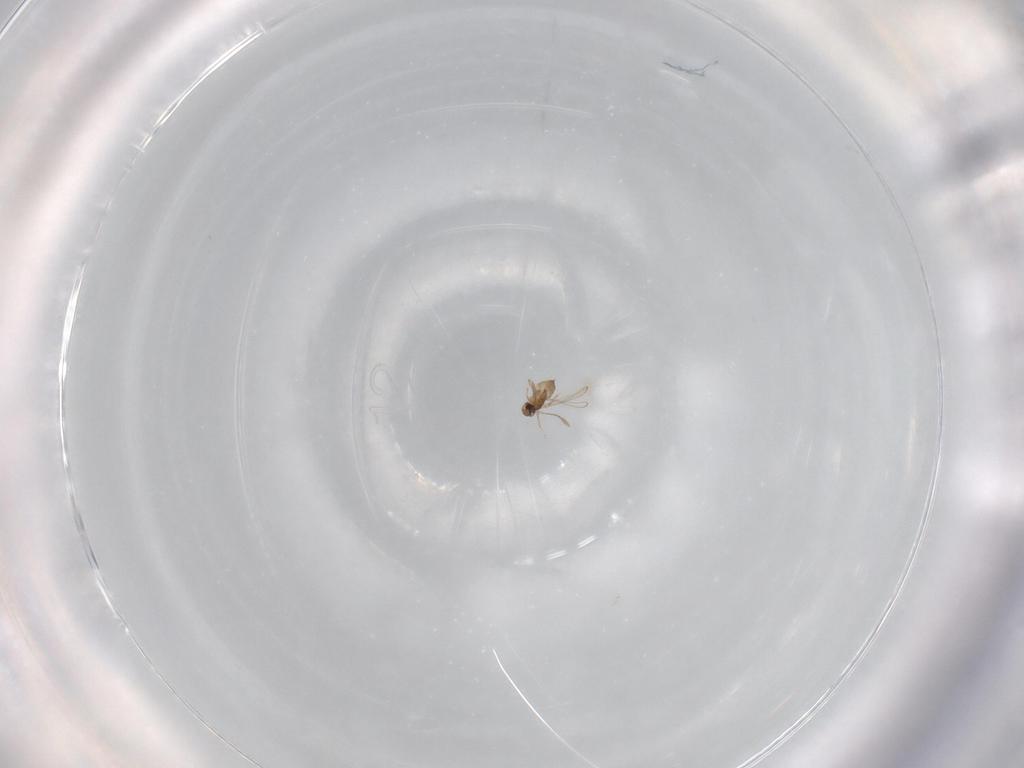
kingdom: Animalia
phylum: Arthropoda
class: Insecta
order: Hymenoptera
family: Mymaridae
